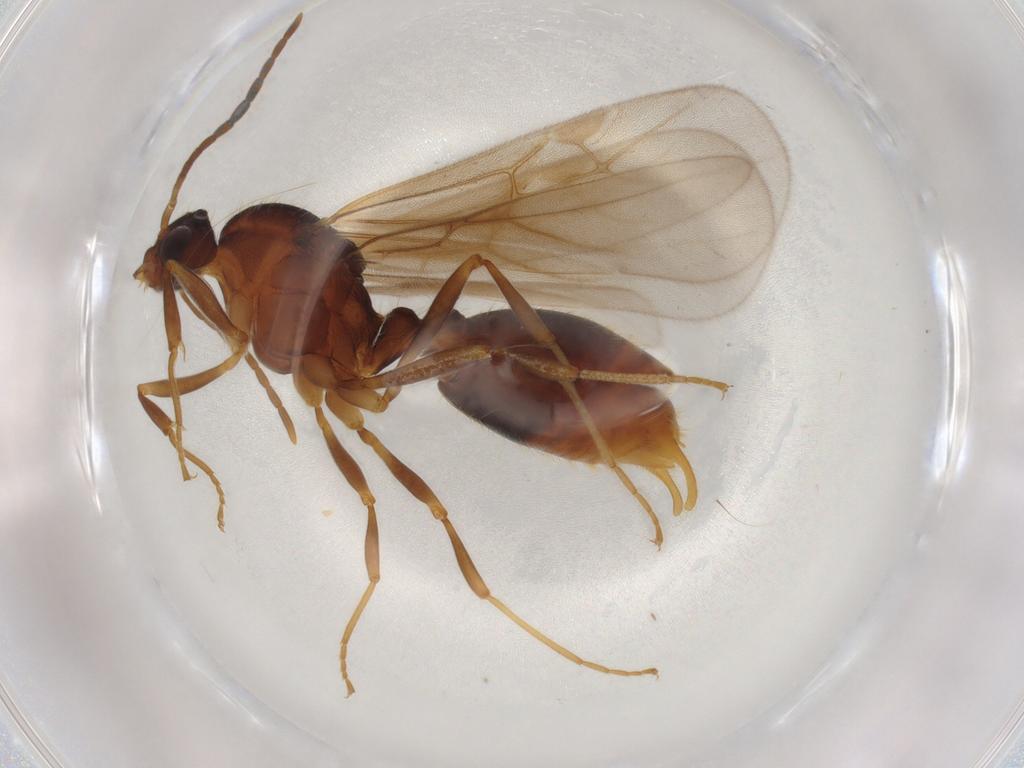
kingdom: Animalia
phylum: Arthropoda
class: Insecta
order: Hymenoptera
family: Formicidae
